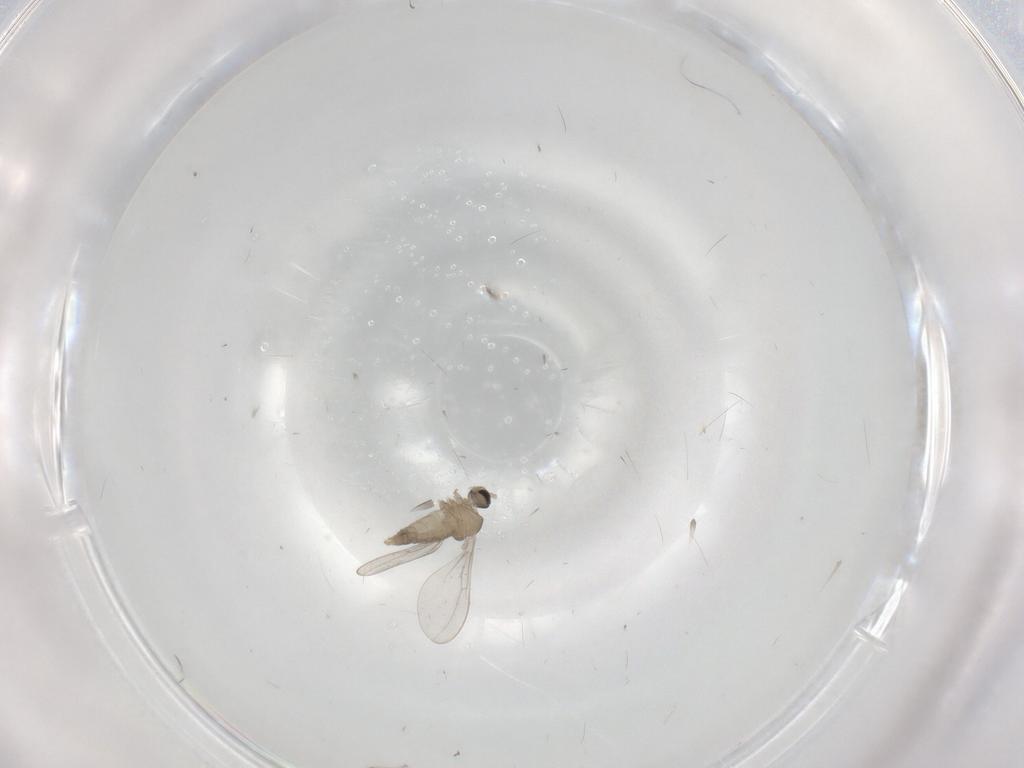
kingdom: Animalia
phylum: Arthropoda
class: Insecta
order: Diptera
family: Cecidomyiidae
